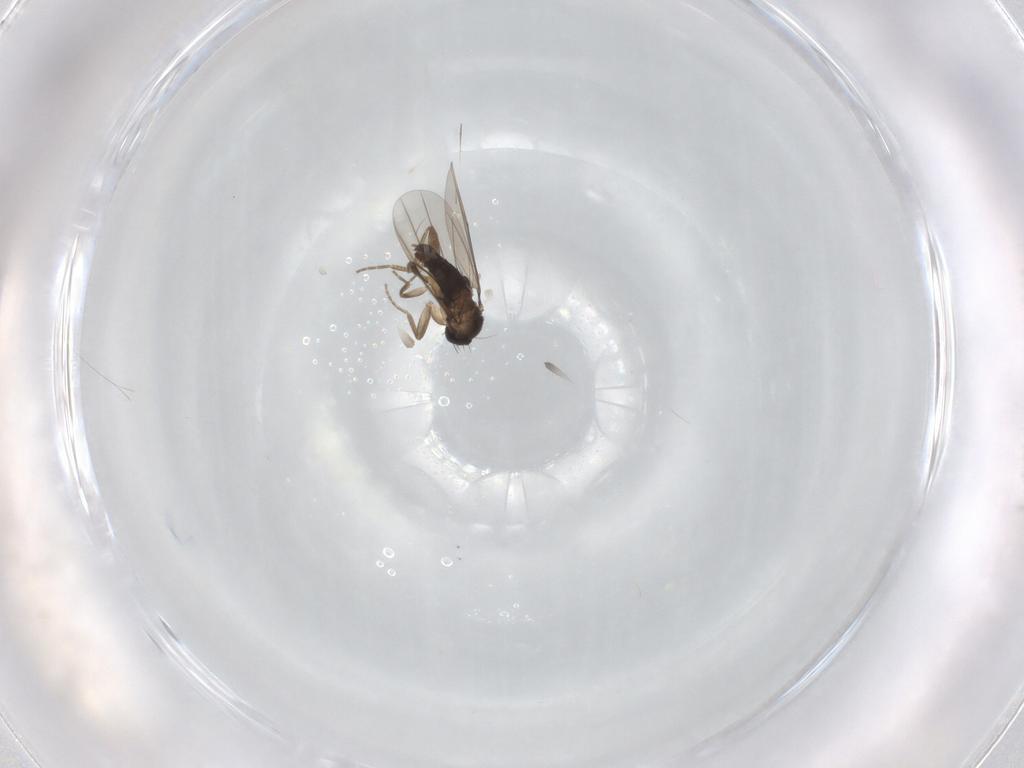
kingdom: Animalia
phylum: Arthropoda
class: Insecta
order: Diptera
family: Phoridae
